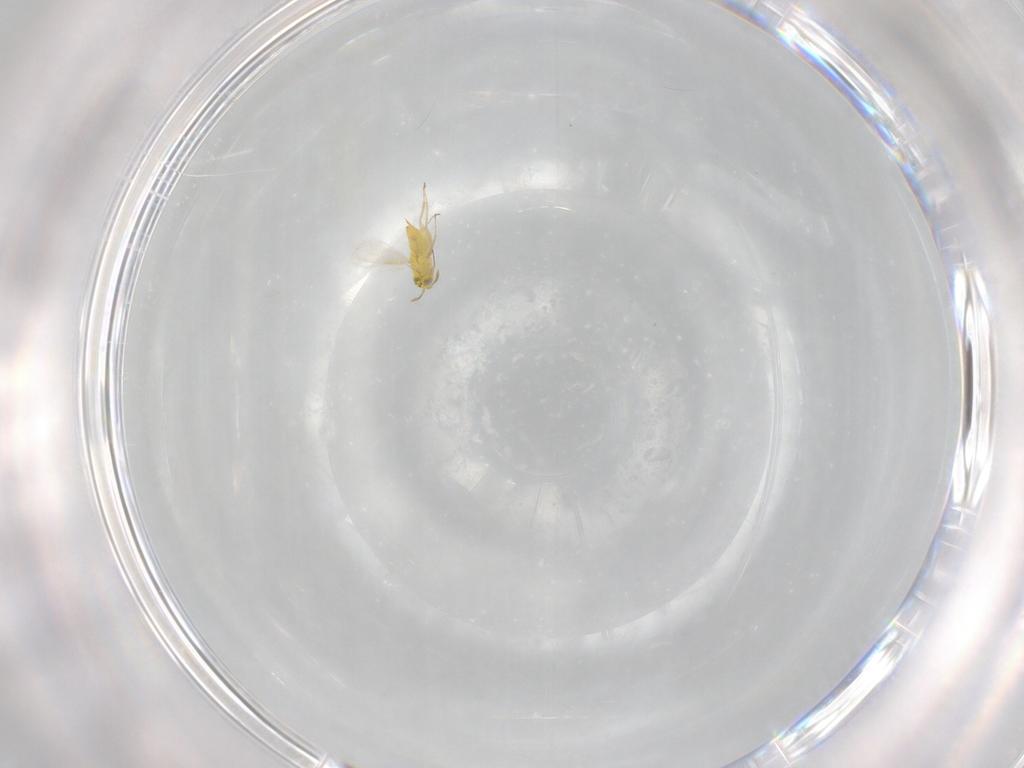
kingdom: Animalia
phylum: Arthropoda
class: Insecta
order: Hymenoptera
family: Aphelinidae
